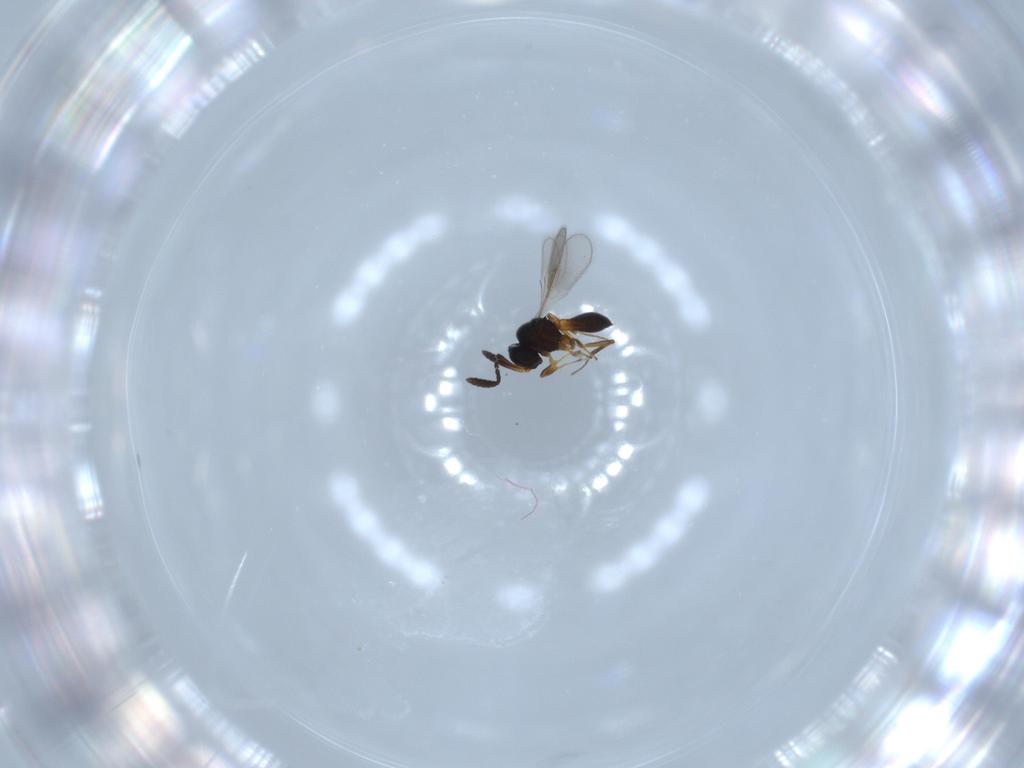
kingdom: Animalia
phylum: Arthropoda
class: Insecta
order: Hymenoptera
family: Scelionidae
